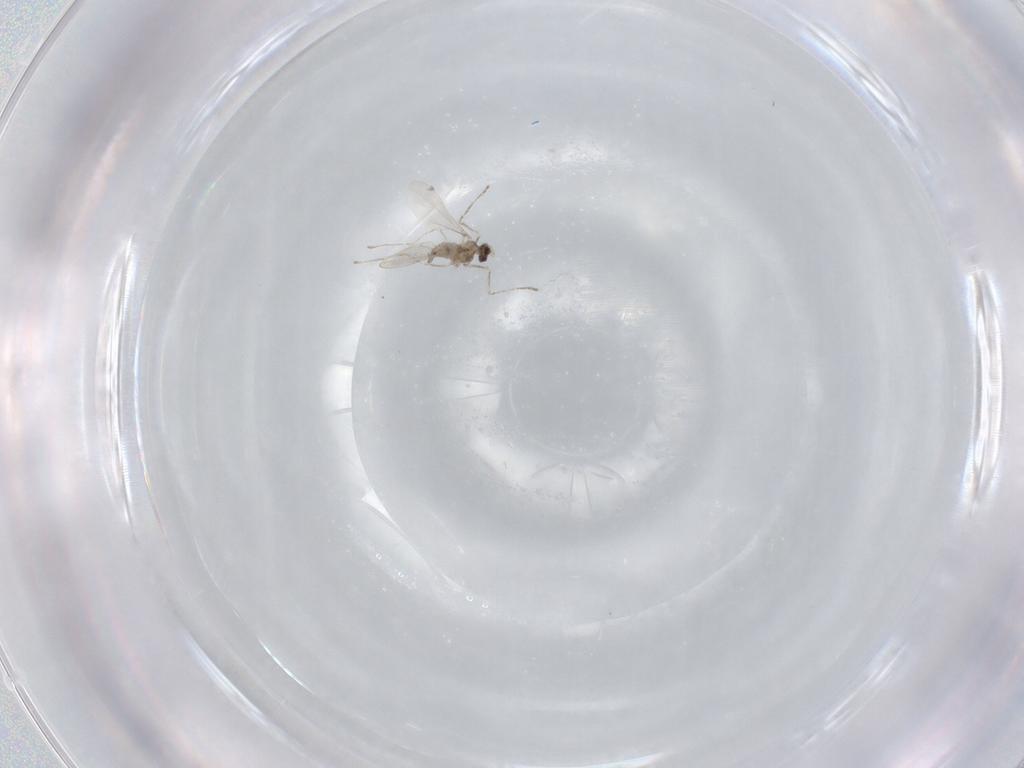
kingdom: Animalia
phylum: Arthropoda
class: Insecta
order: Diptera
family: Cecidomyiidae
